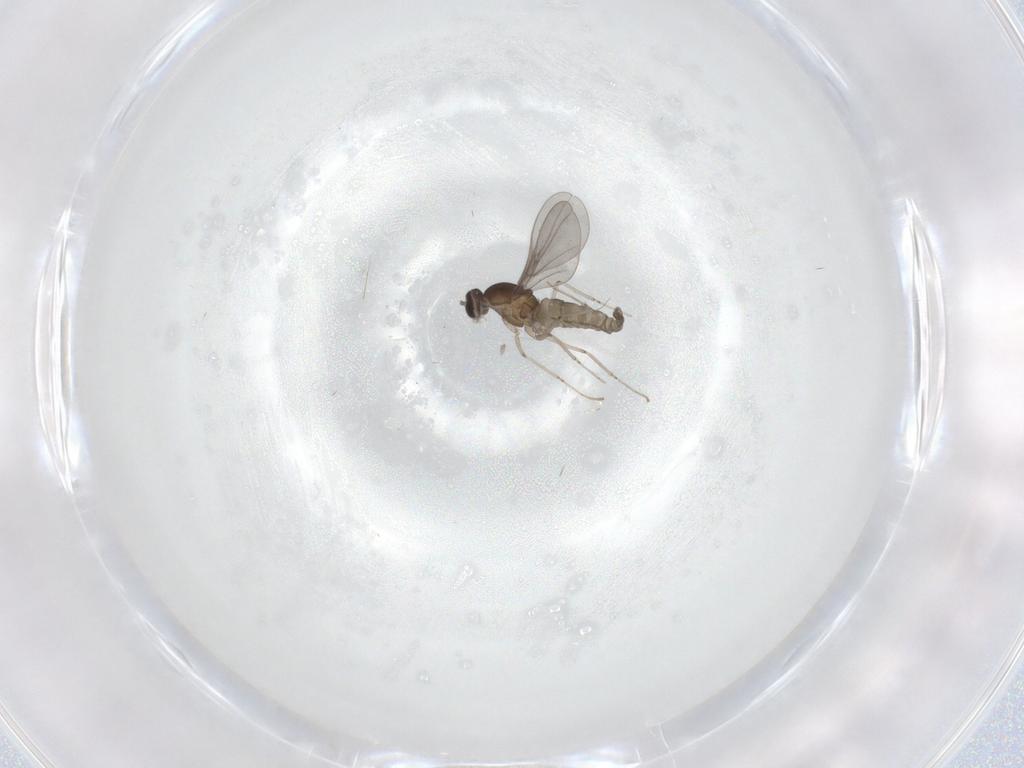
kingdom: Animalia
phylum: Arthropoda
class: Insecta
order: Diptera
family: Cecidomyiidae
